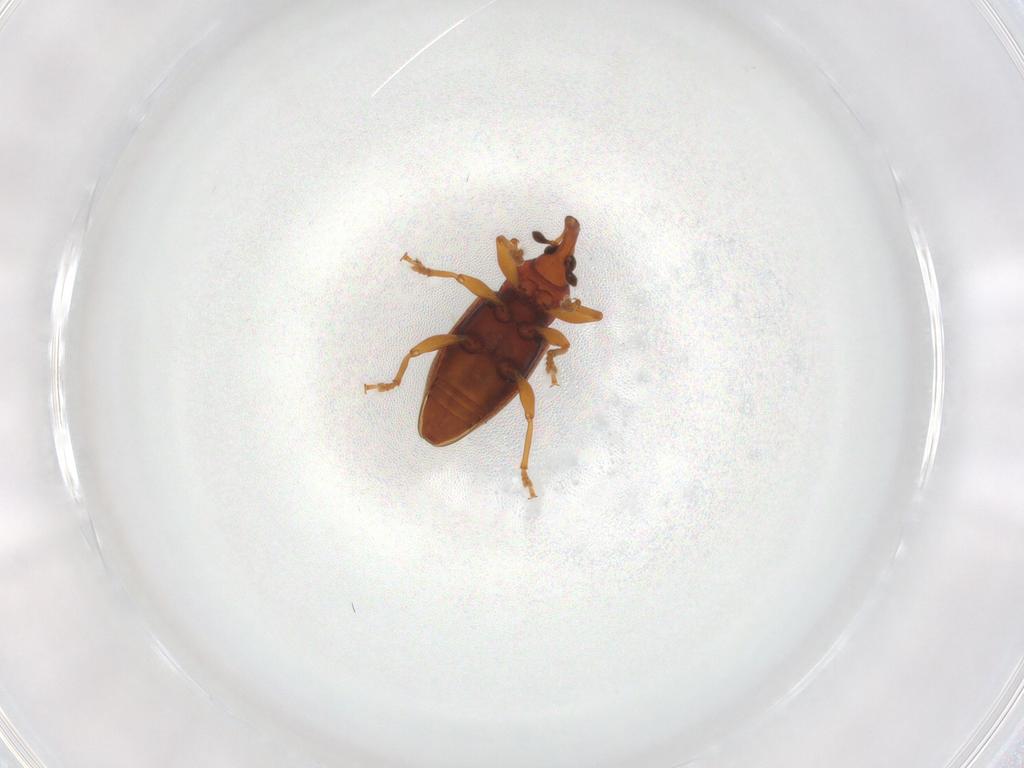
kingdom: Animalia
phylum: Arthropoda
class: Insecta
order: Coleoptera
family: Curculionidae
